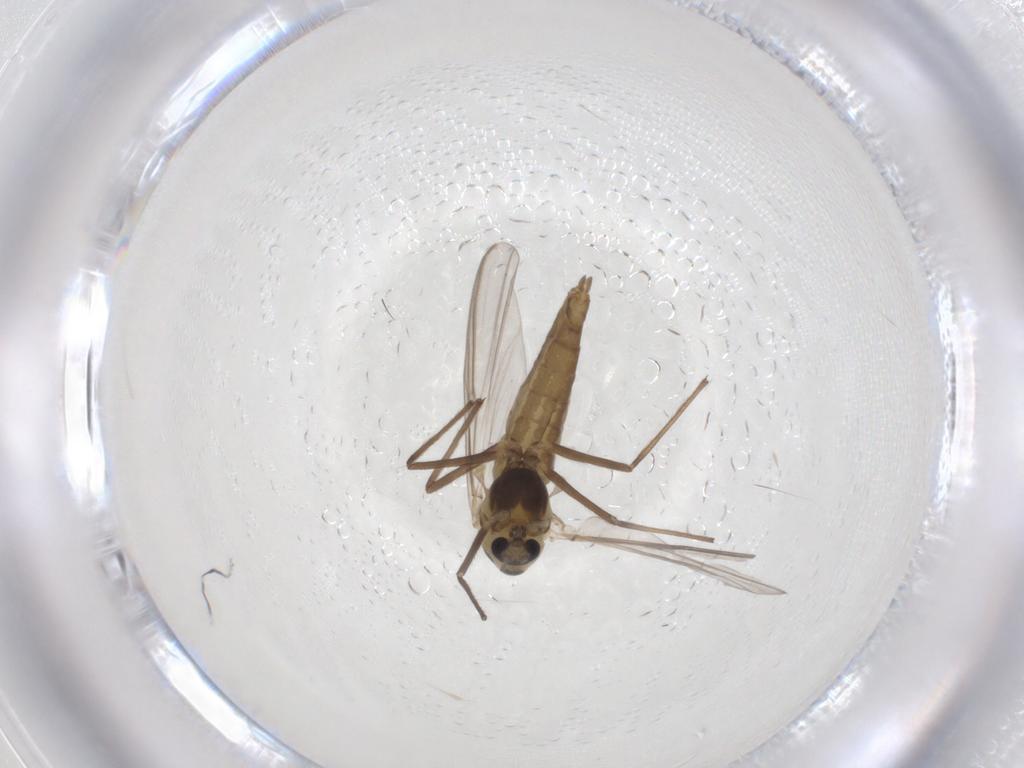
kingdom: Animalia
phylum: Arthropoda
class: Insecta
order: Diptera
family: Chironomidae
